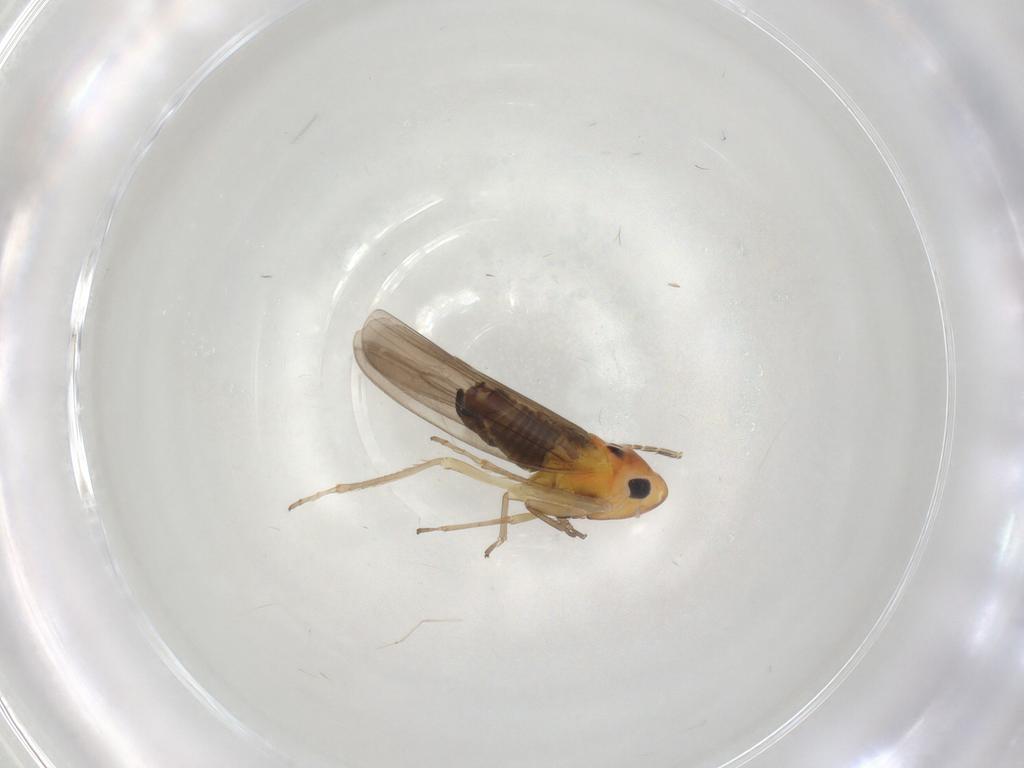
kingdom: Animalia
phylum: Arthropoda
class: Insecta
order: Hemiptera
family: Cicadellidae
